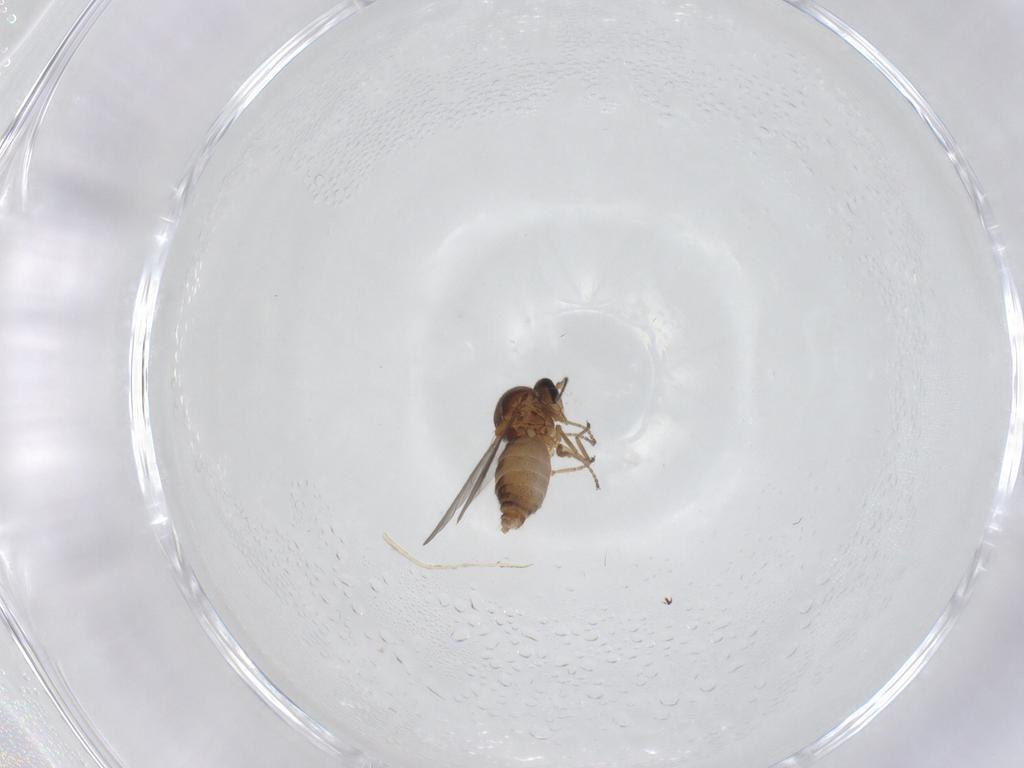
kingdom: Animalia
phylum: Arthropoda
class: Insecta
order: Diptera
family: Ceratopogonidae
